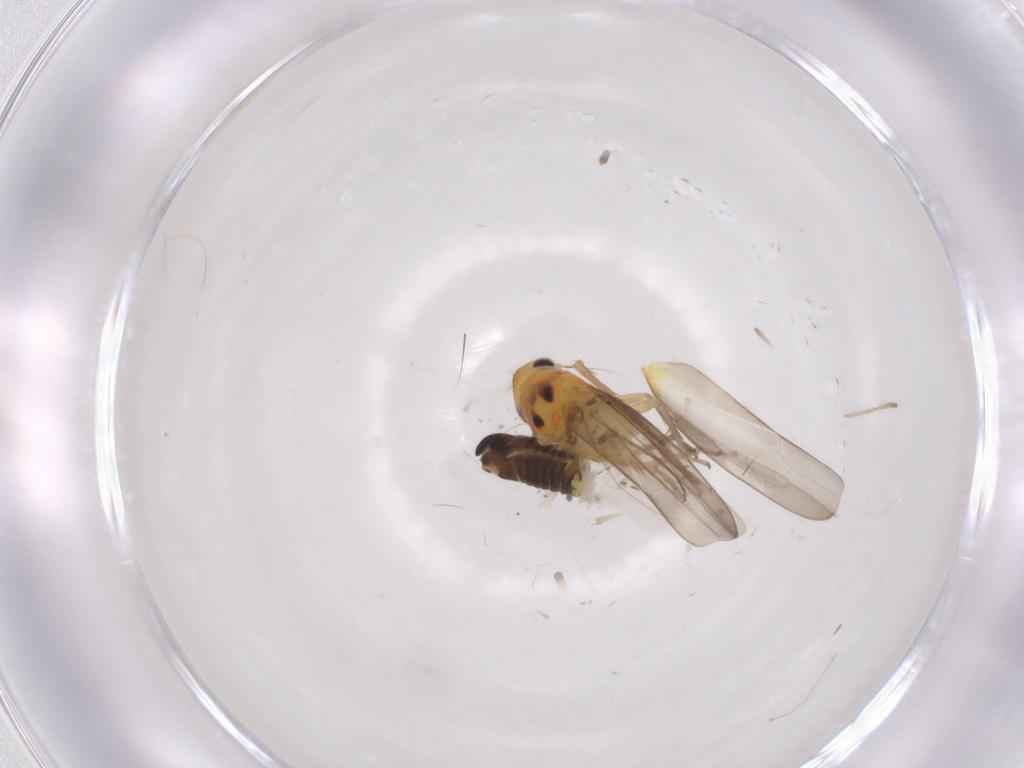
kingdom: Animalia
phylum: Arthropoda
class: Insecta
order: Hemiptera
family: Cicadellidae
